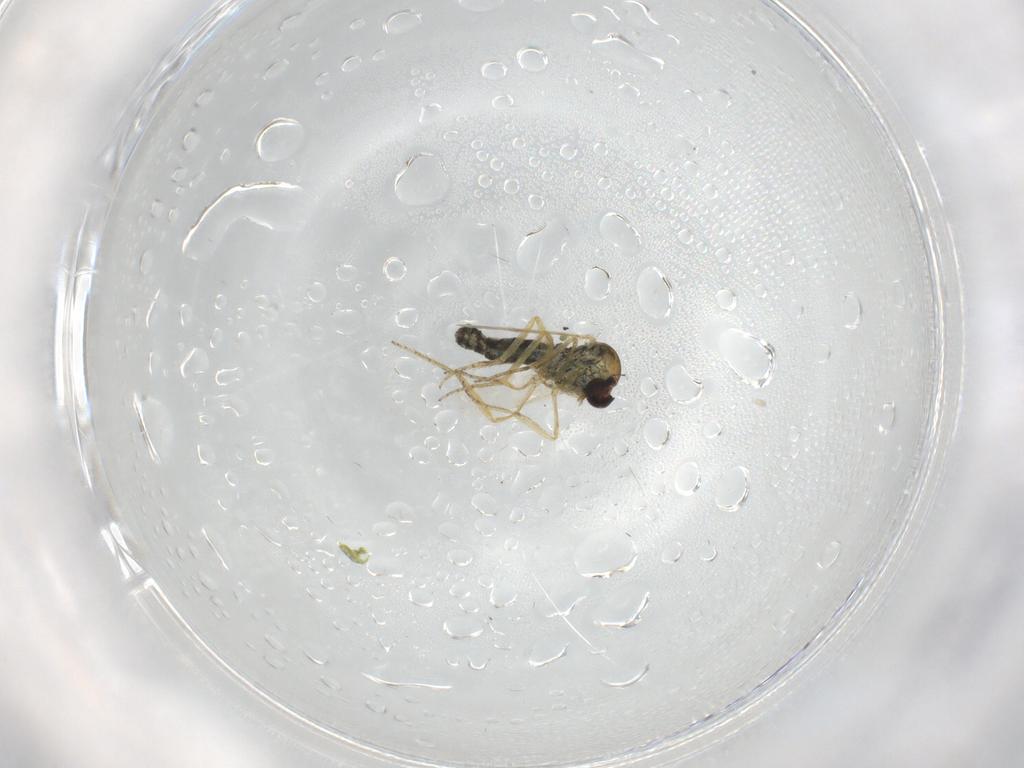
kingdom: Animalia
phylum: Arthropoda
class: Insecta
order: Diptera
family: Ceratopogonidae
